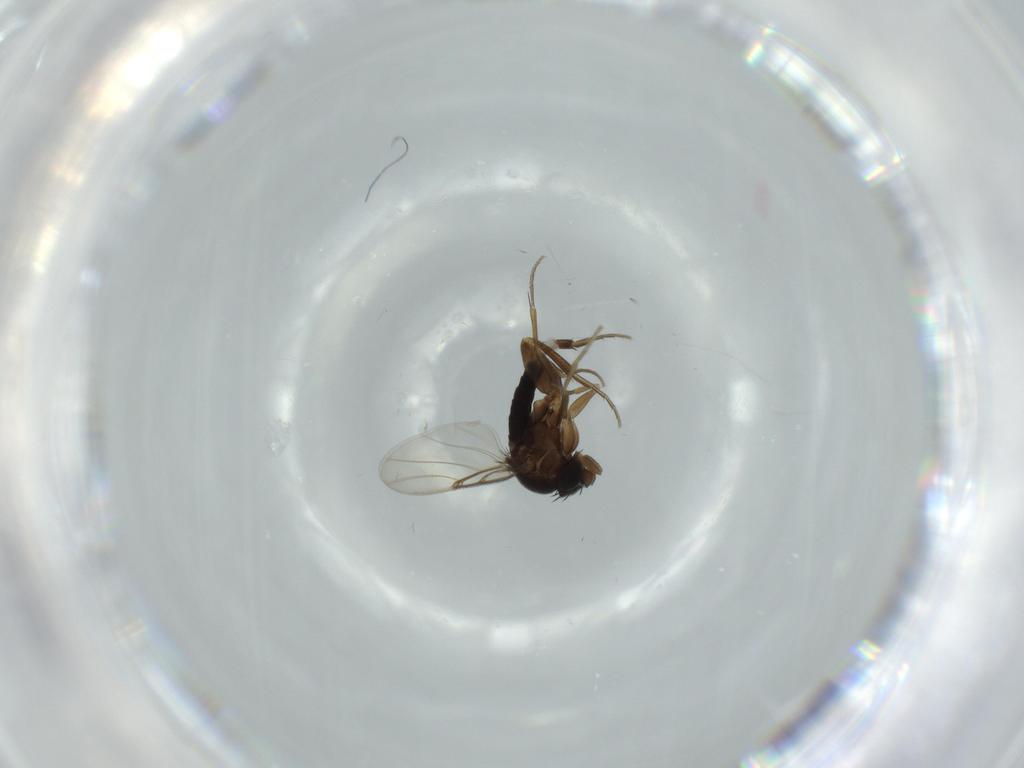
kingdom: Animalia
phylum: Arthropoda
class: Insecta
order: Diptera
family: Phoridae
